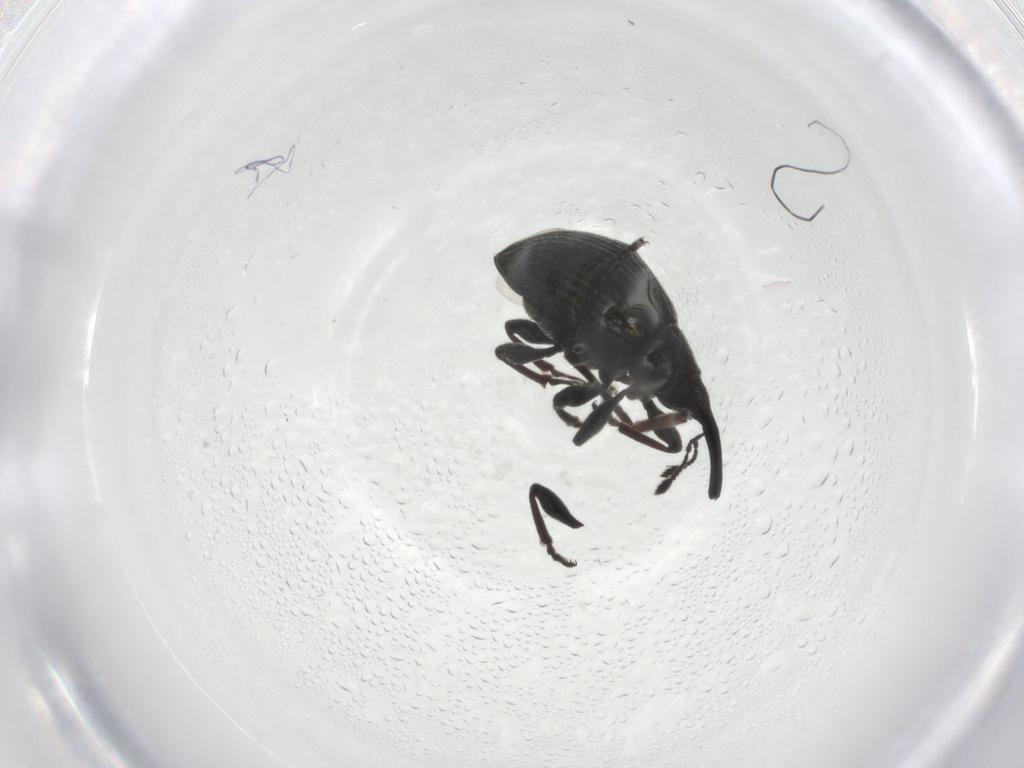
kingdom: Animalia
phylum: Arthropoda
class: Insecta
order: Coleoptera
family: Brentidae
